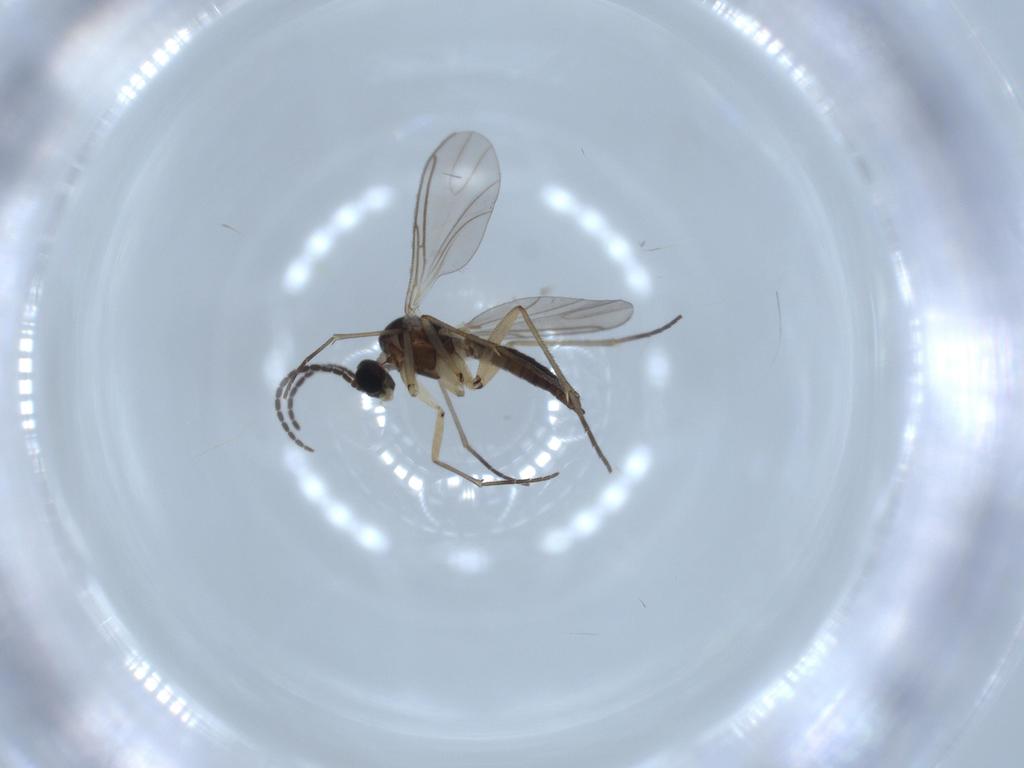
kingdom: Animalia
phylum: Arthropoda
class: Insecta
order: Diptera
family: Sciaridae
